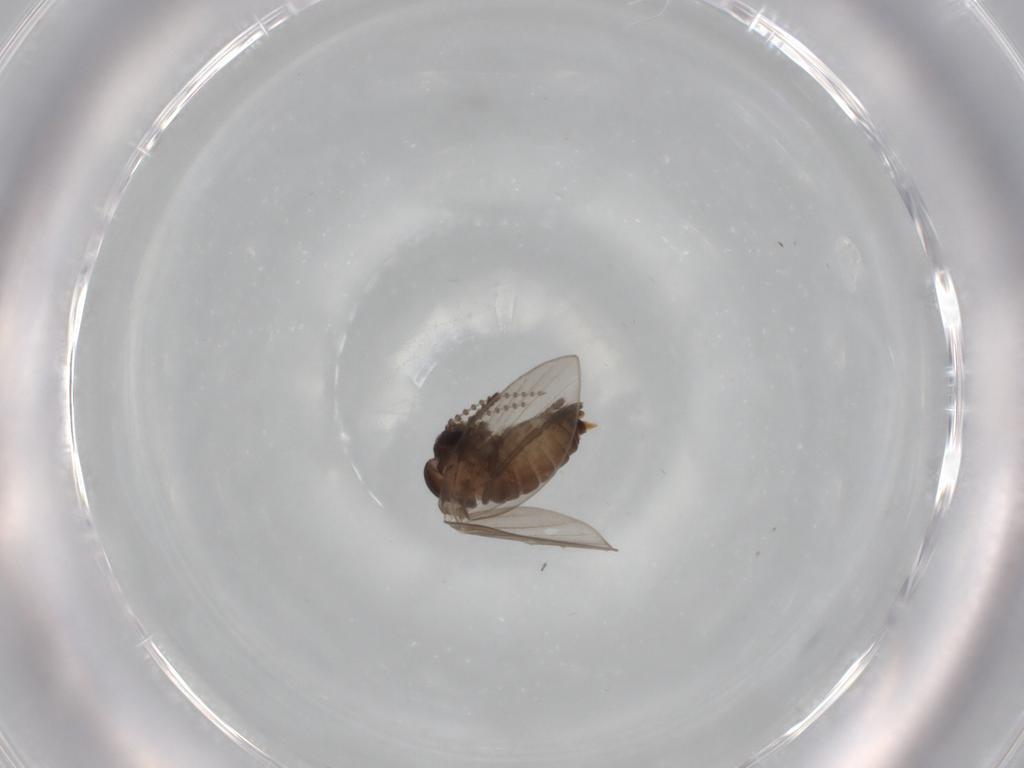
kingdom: Animalia
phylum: Arthropoda
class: Insecta
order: Diptera
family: Psychodidae
